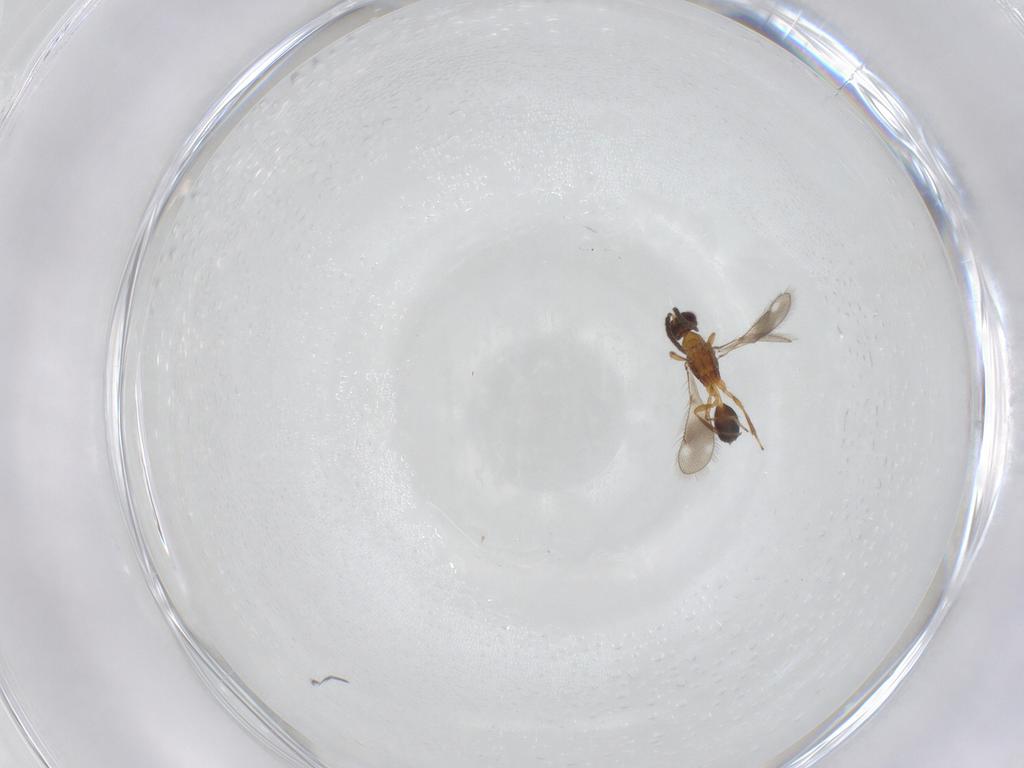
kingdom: Animalia
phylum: Arthropoda
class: Insecta
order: Hymenoptera
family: Pteromalidae
